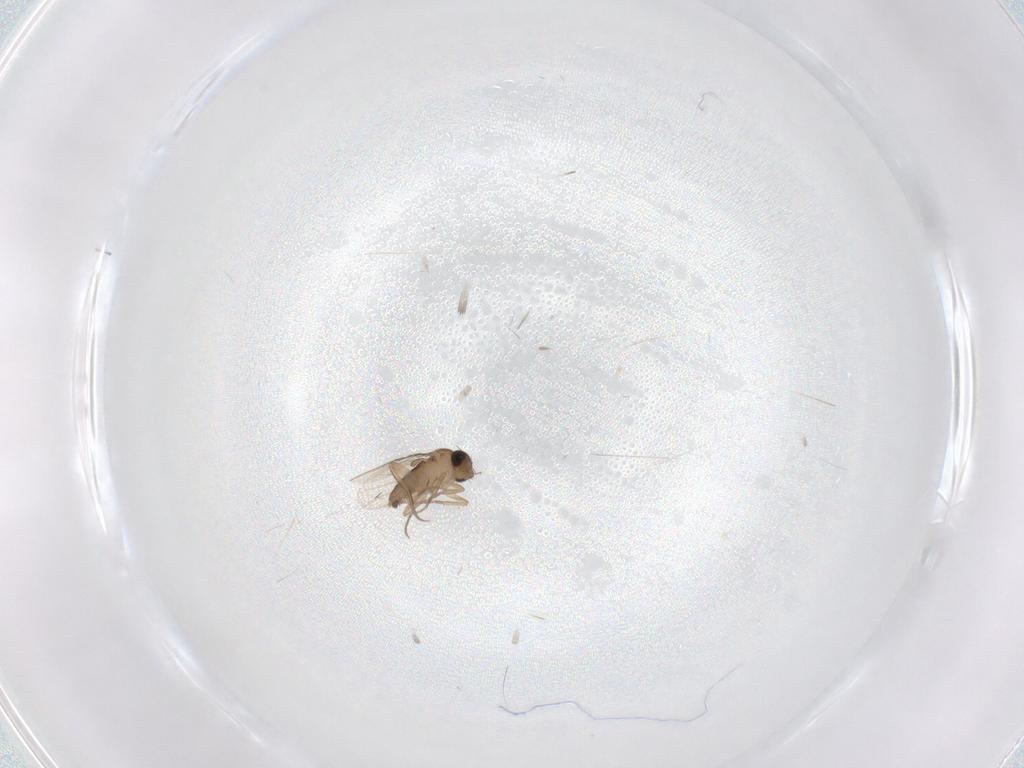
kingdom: Animalia
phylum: Arthropoda
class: Insecta
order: Diptera
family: Phoridae
